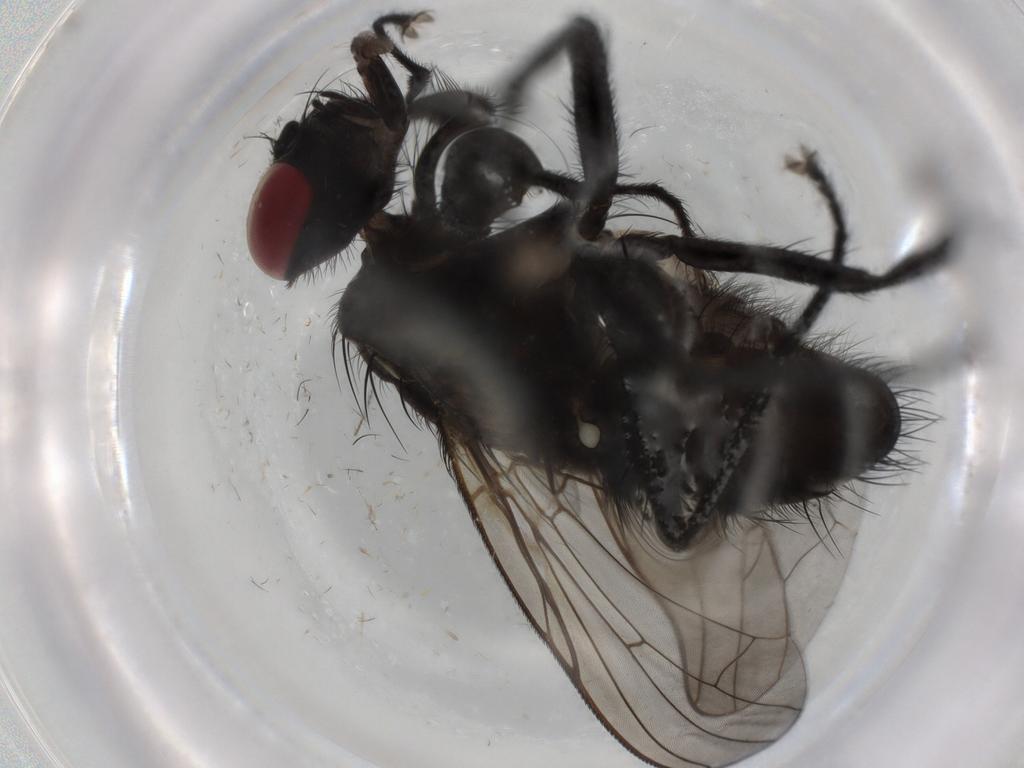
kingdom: Animalia
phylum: Arthropoda
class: Insecta
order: Diptera
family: Muscidae
